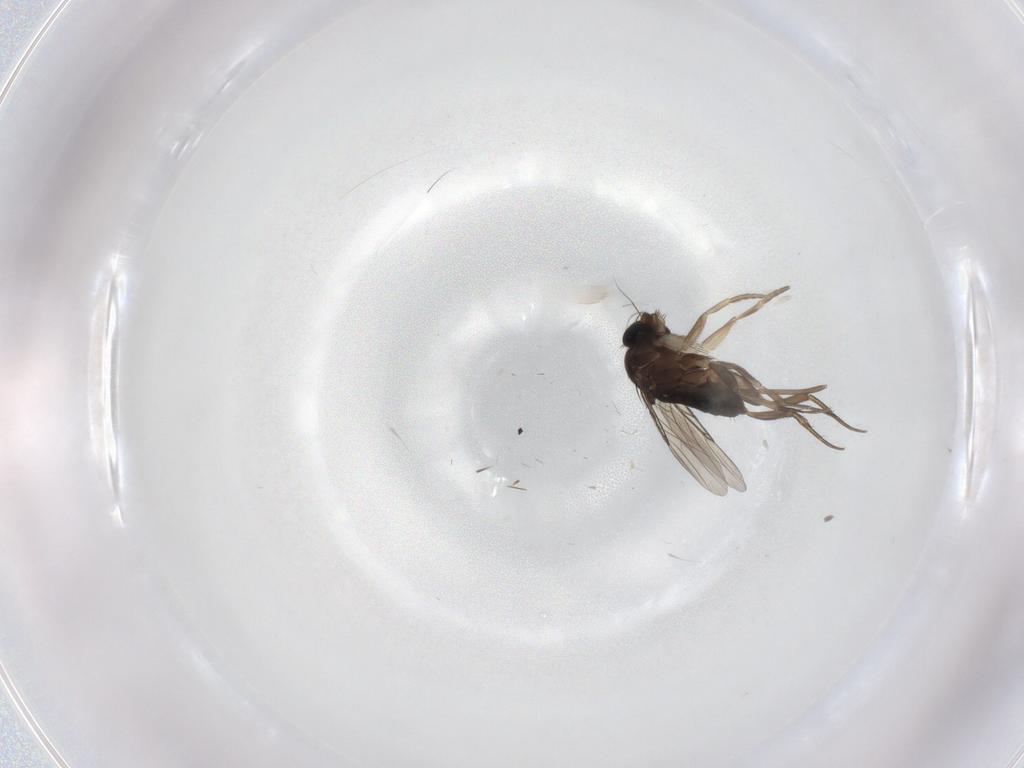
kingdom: Animalia
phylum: Arthropoda
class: Insecta
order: Diptera
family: Phoridae
